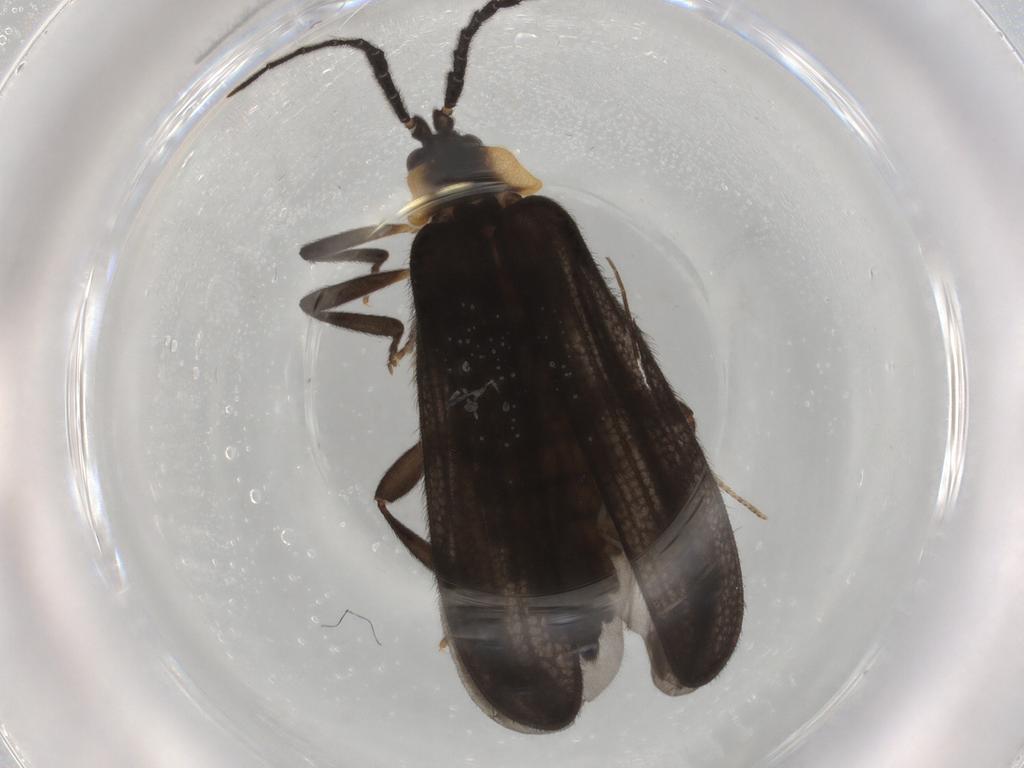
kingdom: Animalia
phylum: Arthropoda
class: Insecta
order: Coleoptera
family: Lycidae
